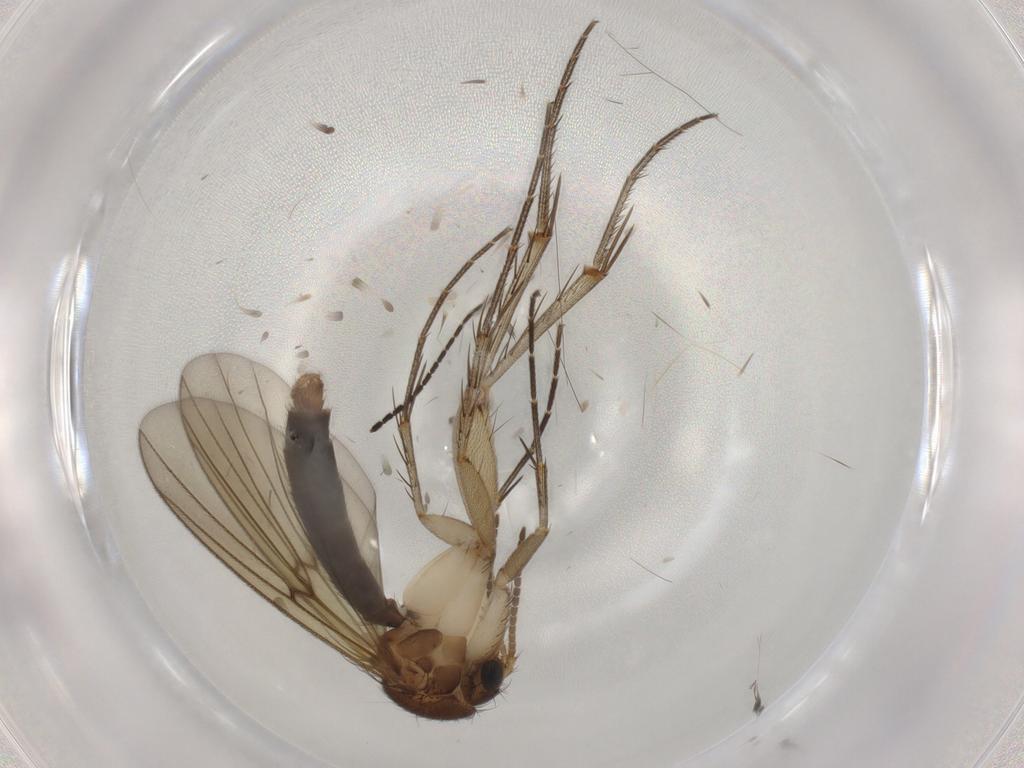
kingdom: Animalia
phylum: Arthropoda
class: Insecta
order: Diptera
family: Mycetophilidae
